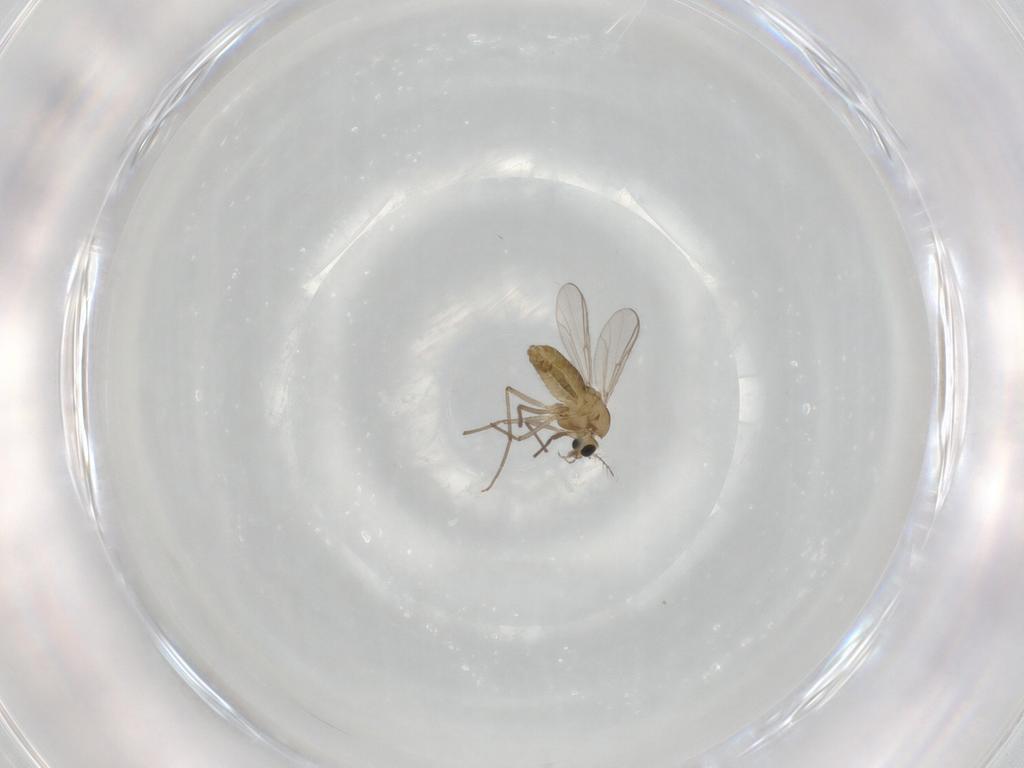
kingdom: Animalia
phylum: Arthropoda
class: Insecta
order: Diptera
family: Chironomidae
